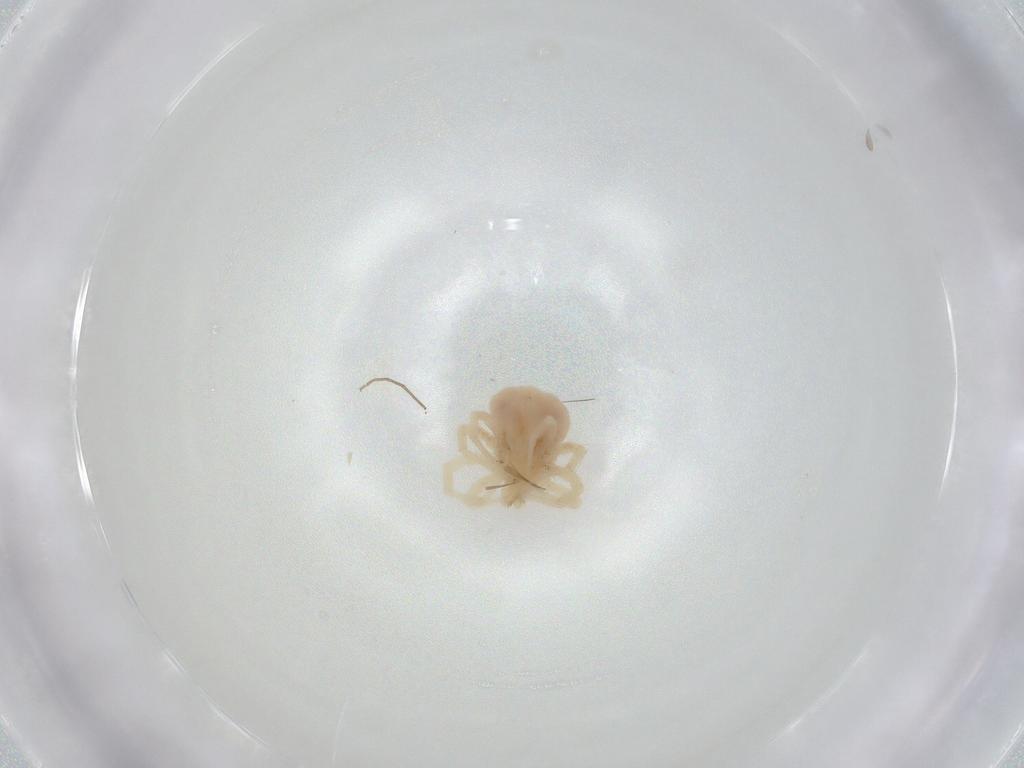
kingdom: Animalia
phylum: Arthropoda
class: Arachnida
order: Trombidiformes
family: Anystidae
